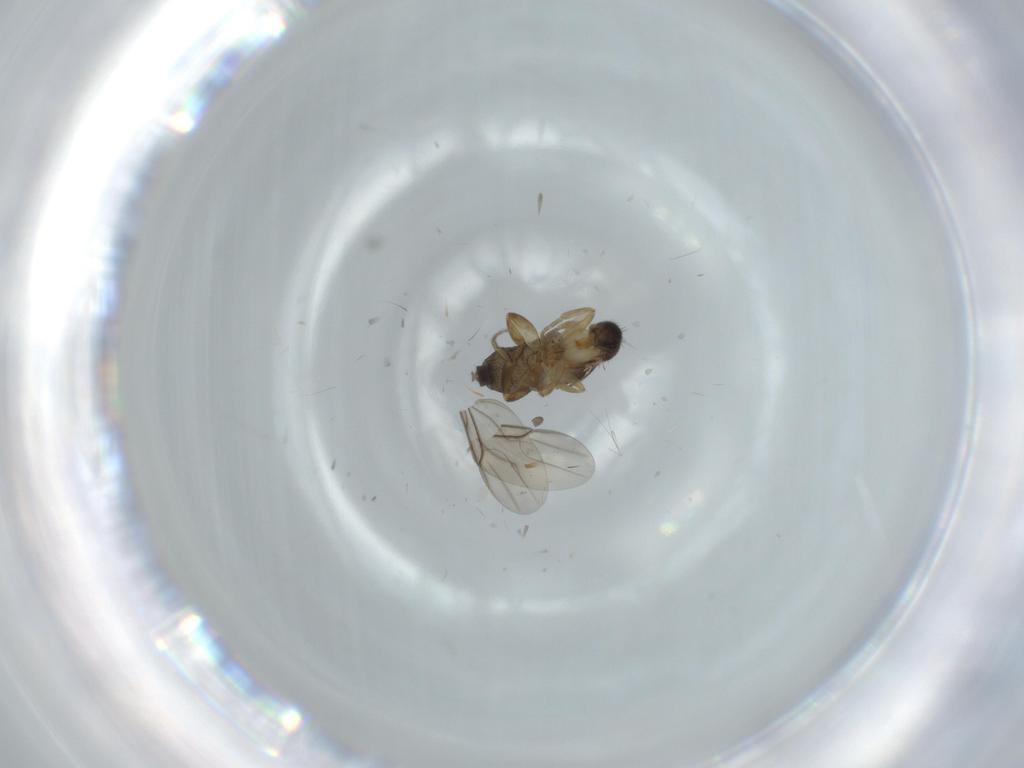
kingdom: Animalia
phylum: Arthropoda
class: Insecta
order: Diptera
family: Phoridae
